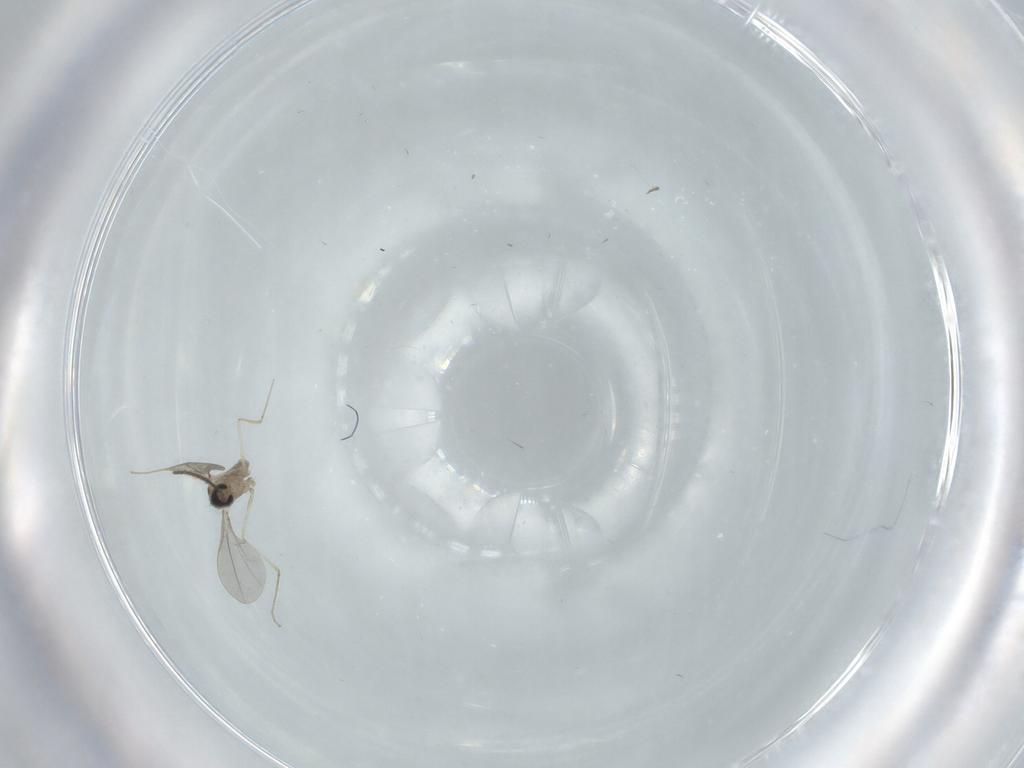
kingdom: Animalia
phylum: Arthropoda
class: Insecta
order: Diptera
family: Cecidomyiidae
